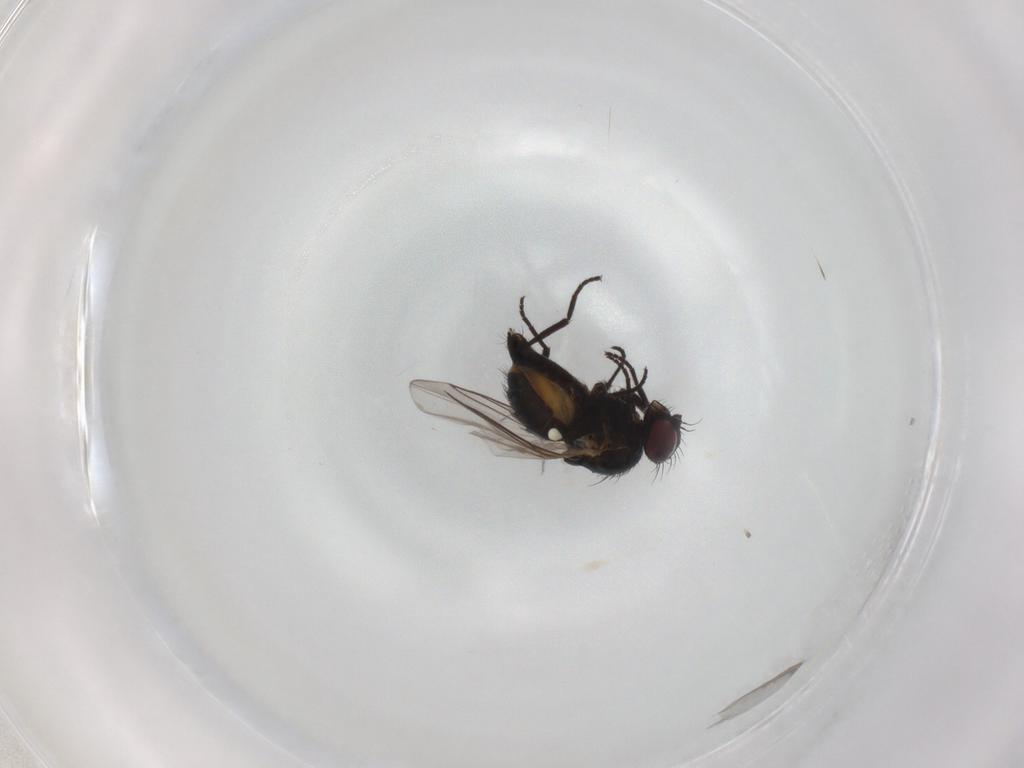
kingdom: Animalia
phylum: Arthropoda
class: Insecta
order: Diptera
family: Agromyzidae
